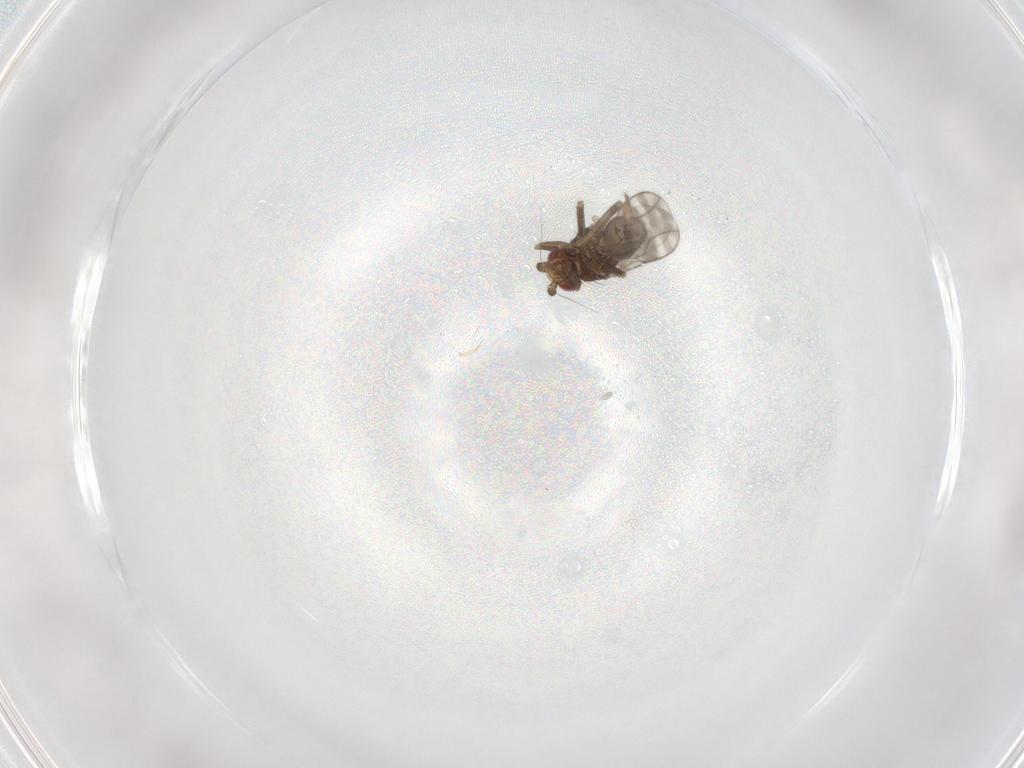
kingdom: Animalia
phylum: Arthropoda
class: Insecta
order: Diptera
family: Sphaeroceridae
